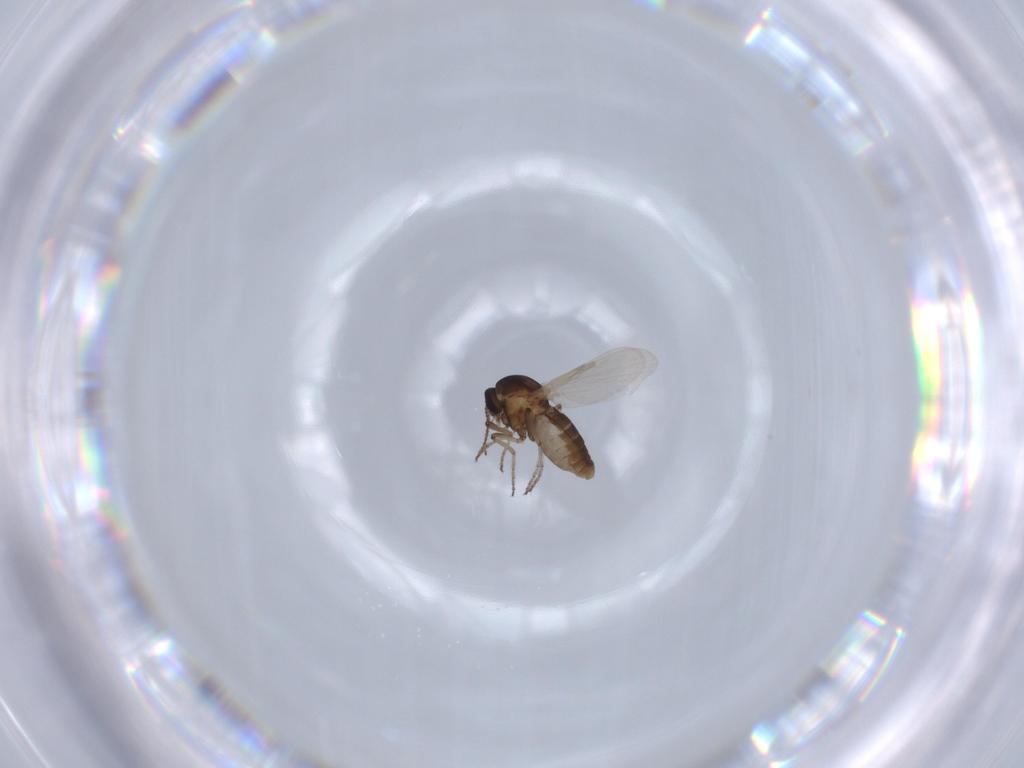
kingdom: Animalia
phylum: Arthropoda
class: Insecta
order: Diptera
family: Ceratopogonidae
